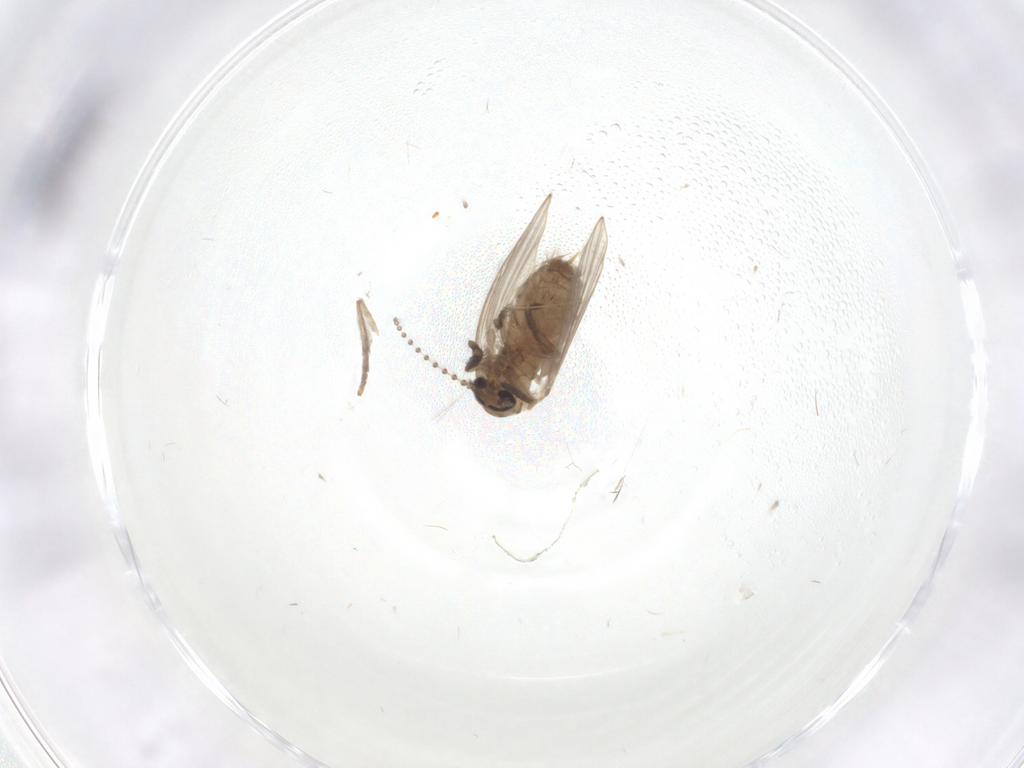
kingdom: Animalia
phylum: Arthropoda
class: Insecta
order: Diptera
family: Psychodidae
